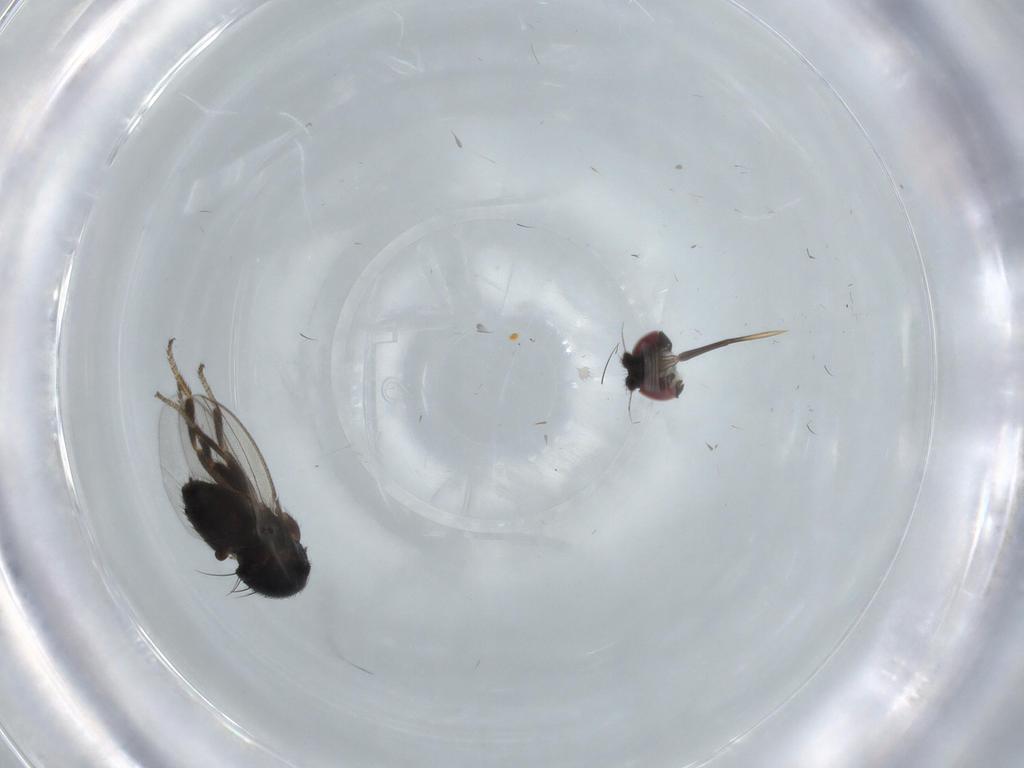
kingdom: Animalia
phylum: Arthropoda
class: Insecta
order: Diptera
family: Milichiidae
